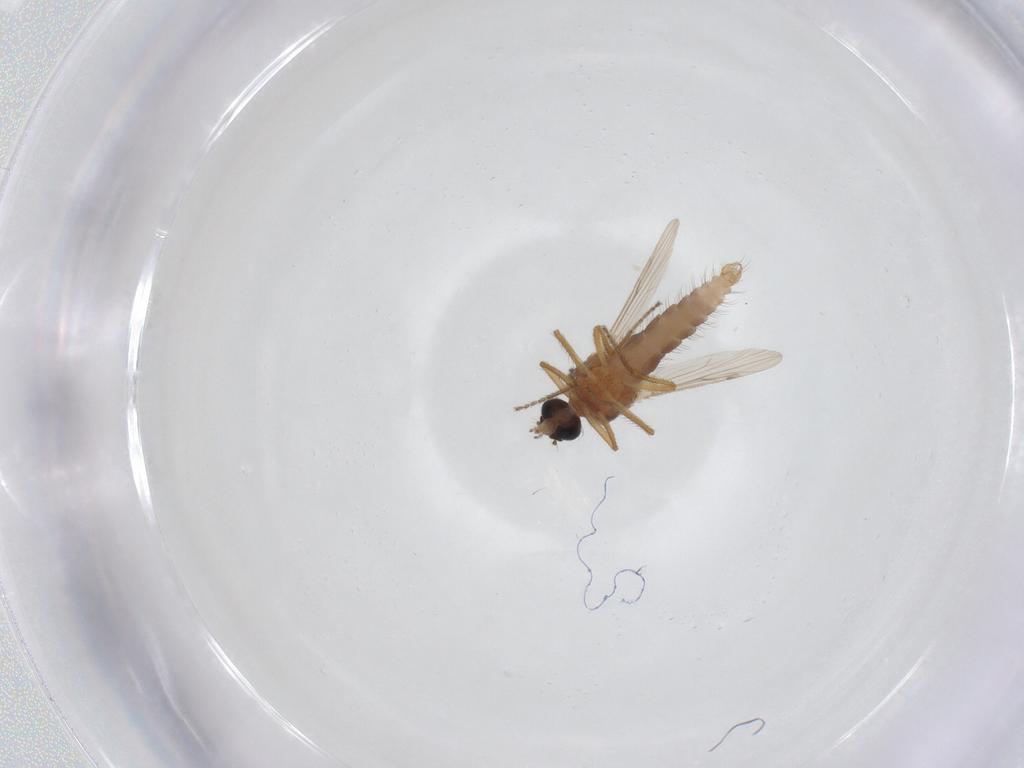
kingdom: Animalia
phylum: Arthropoda
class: Insecta
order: Diptera
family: Ceratopogonidae
